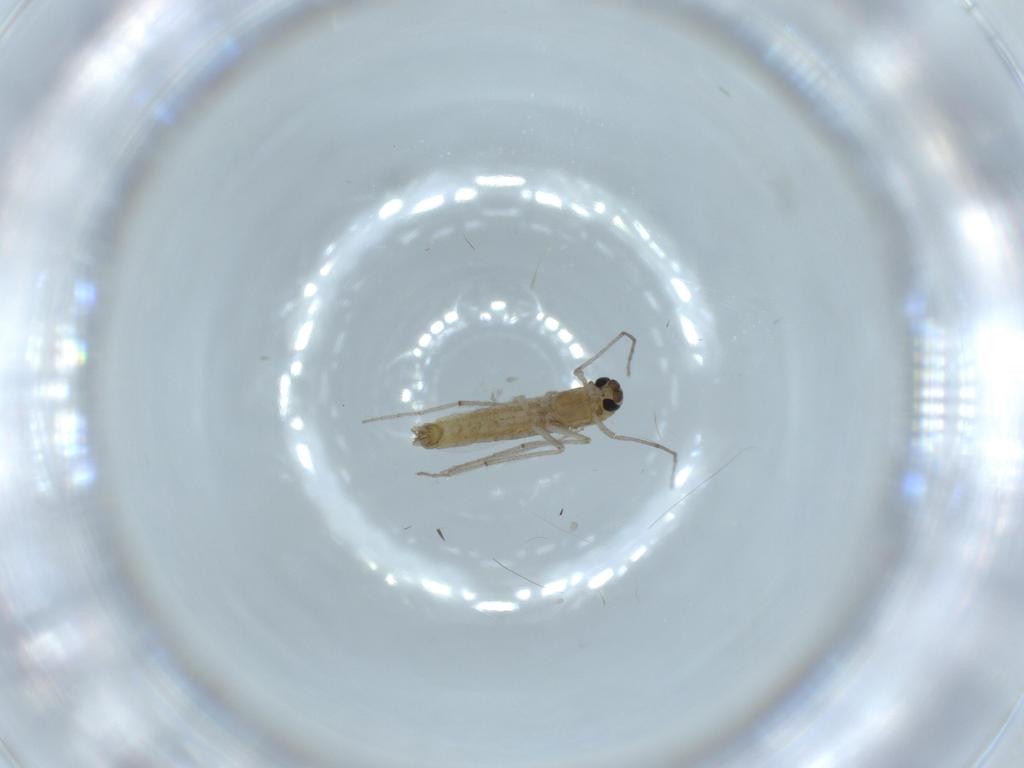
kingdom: Animalia
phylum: Arthropoda
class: Insecta
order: Diptera
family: Chironomidae
